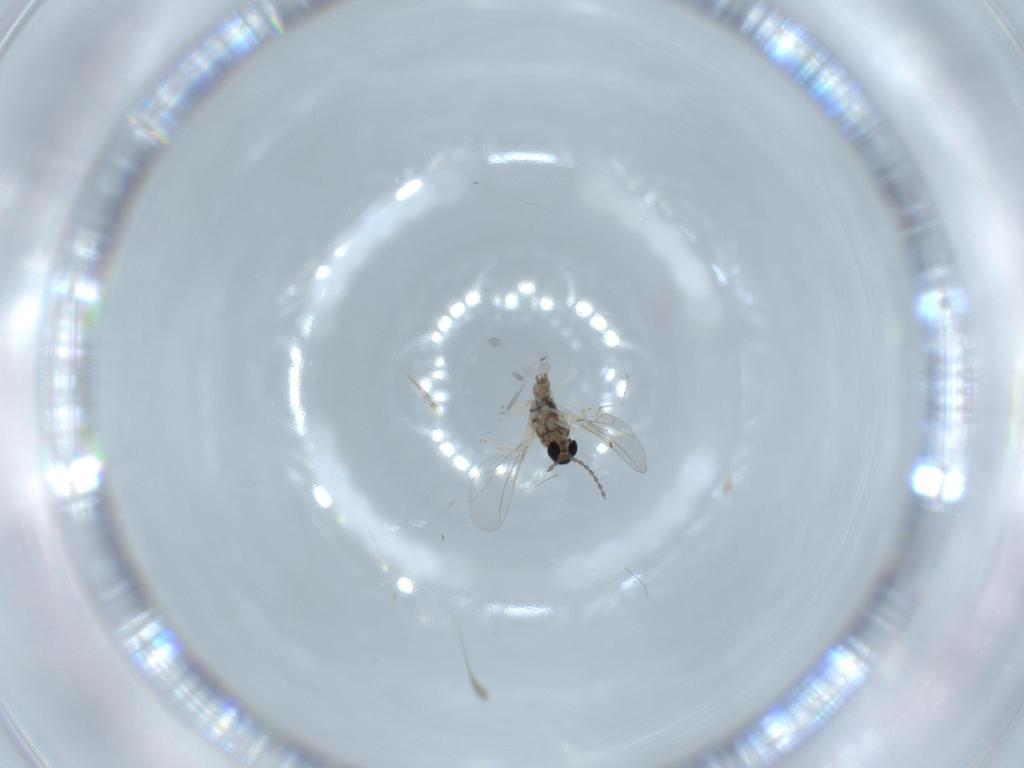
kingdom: Animalia
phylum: Arthropoda
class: Insecta
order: Diptera
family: Cecidomyiidae
